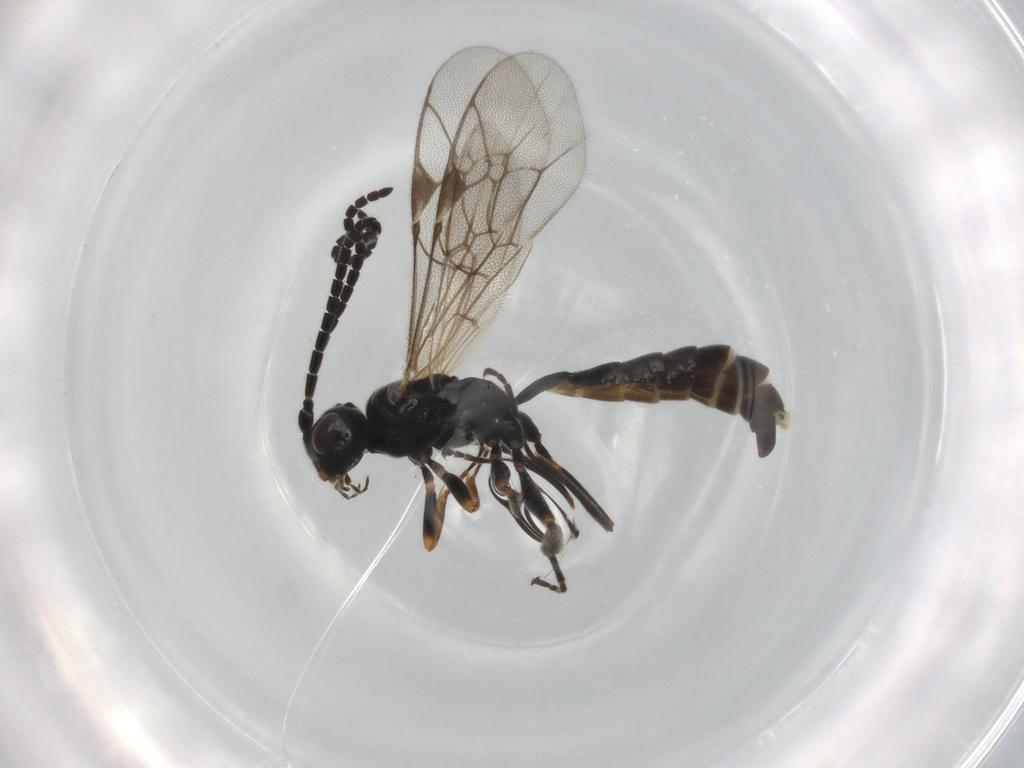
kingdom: Animalia
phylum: Arthropoda
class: Insecta
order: Hymenoptera
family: Ichneumonidae
